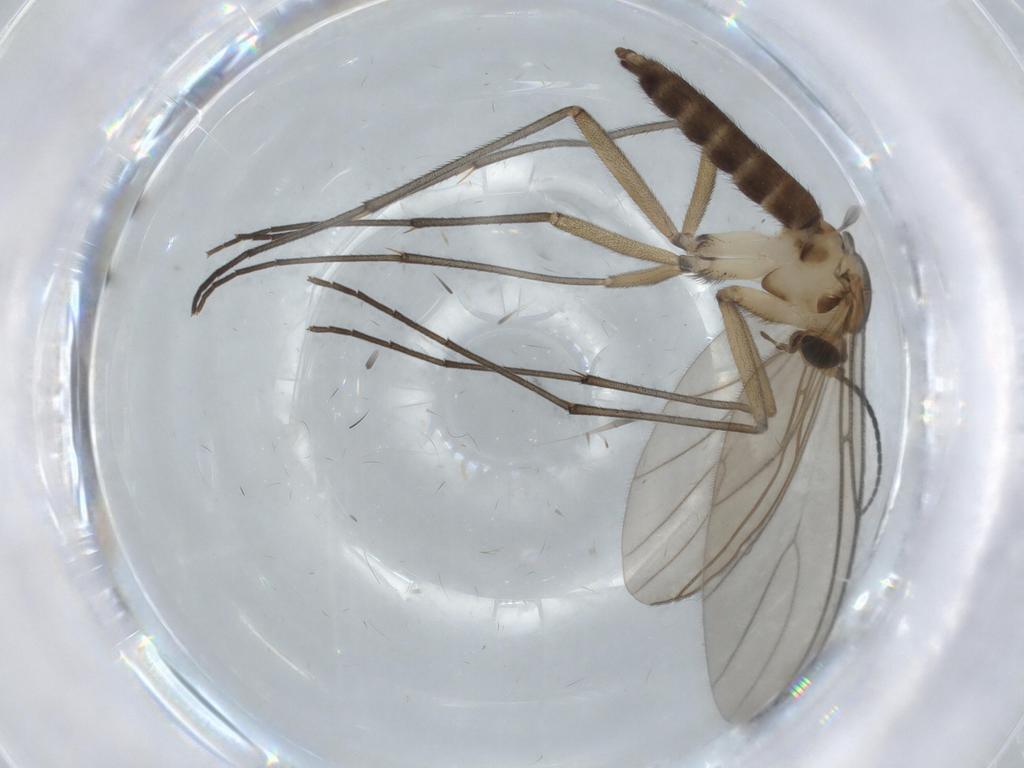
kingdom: Animalia
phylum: Arthropoda
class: Insecta
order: Diptera
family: Sciaridae
